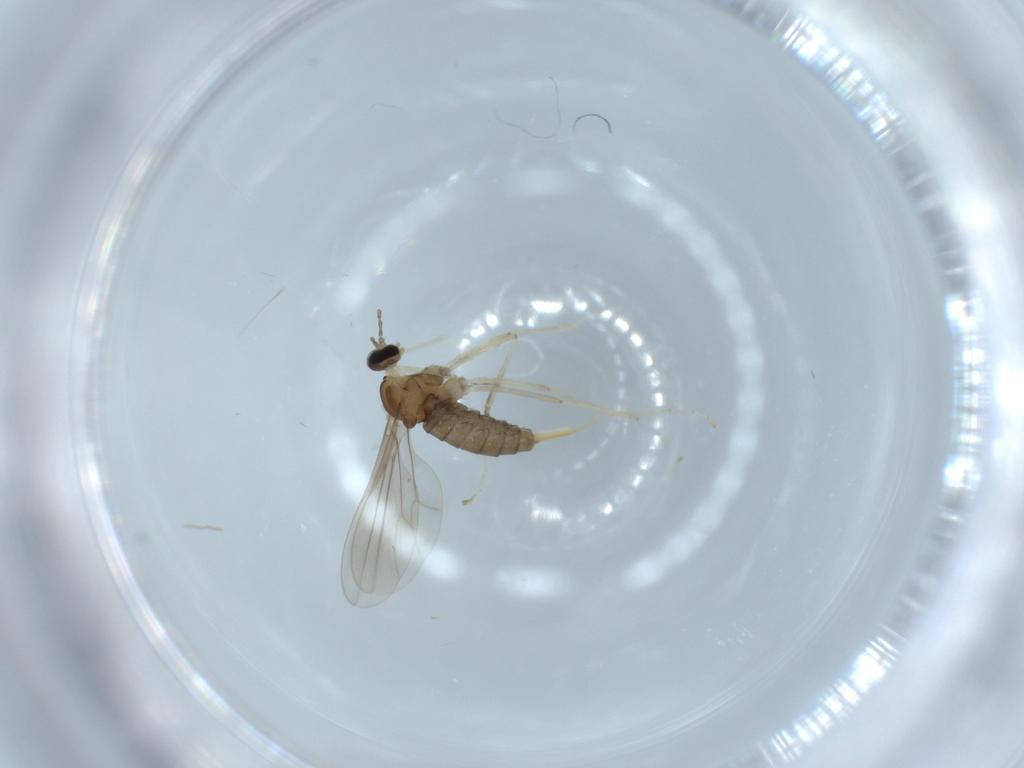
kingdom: Animalia
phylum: Arthropoda
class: Insecta
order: Diptera
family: Cecidomyiidae
